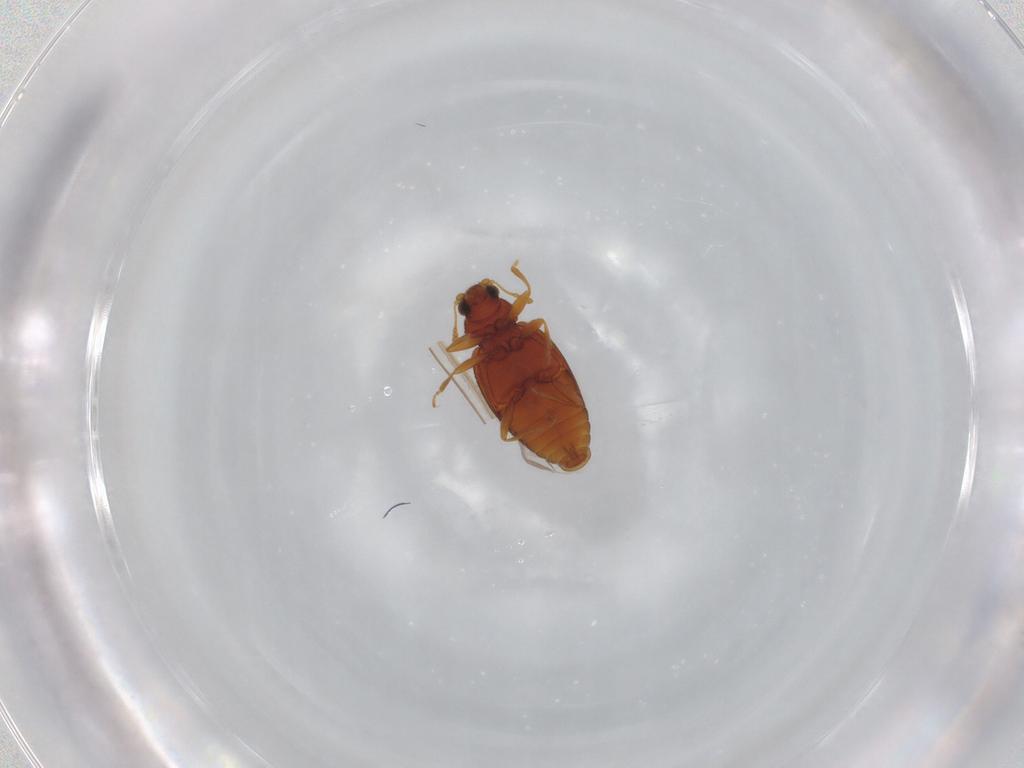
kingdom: Animalia
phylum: Arthropoda
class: Insecta
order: Coleoptera
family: Latridiidae
